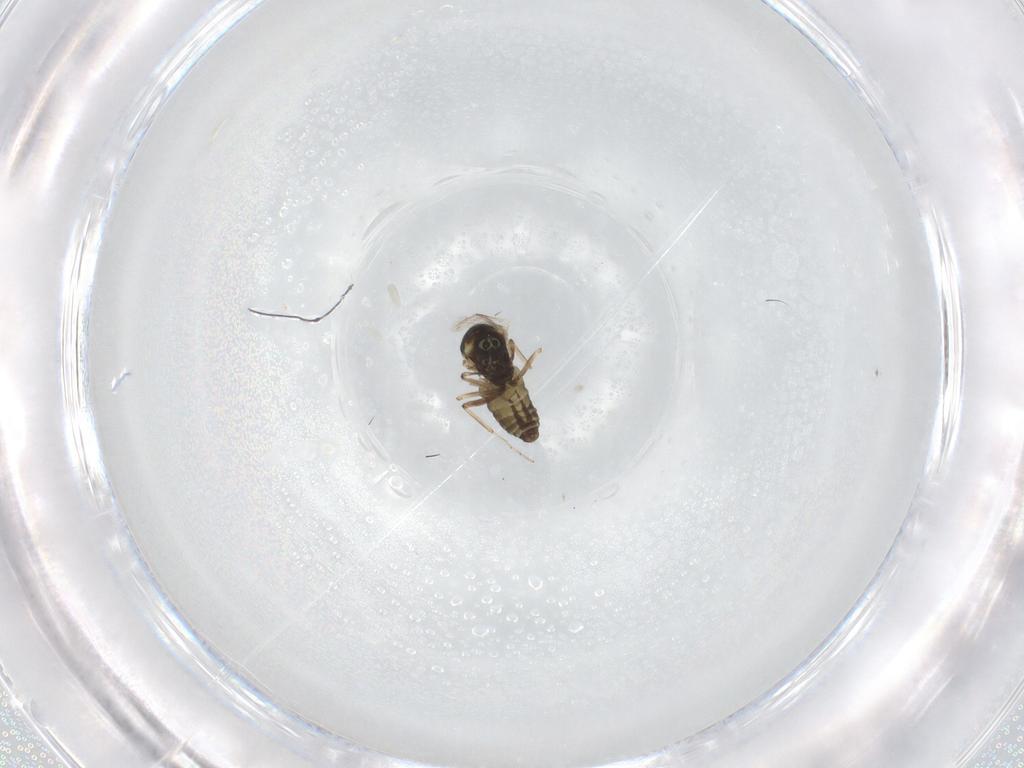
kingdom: Animalia
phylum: Arthropoda
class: Insecta
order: Diptera
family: Ceratopogonidae
